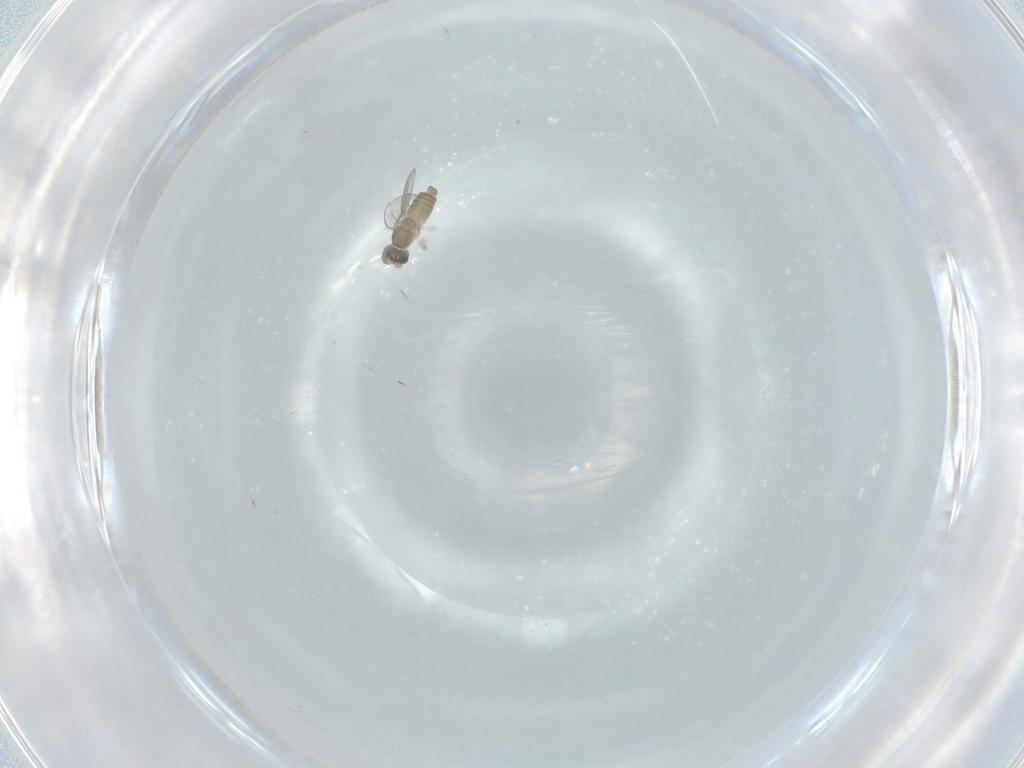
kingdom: Animalia
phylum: Arthropoda
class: Insecta
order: Diptera
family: Cecidomyiidae
